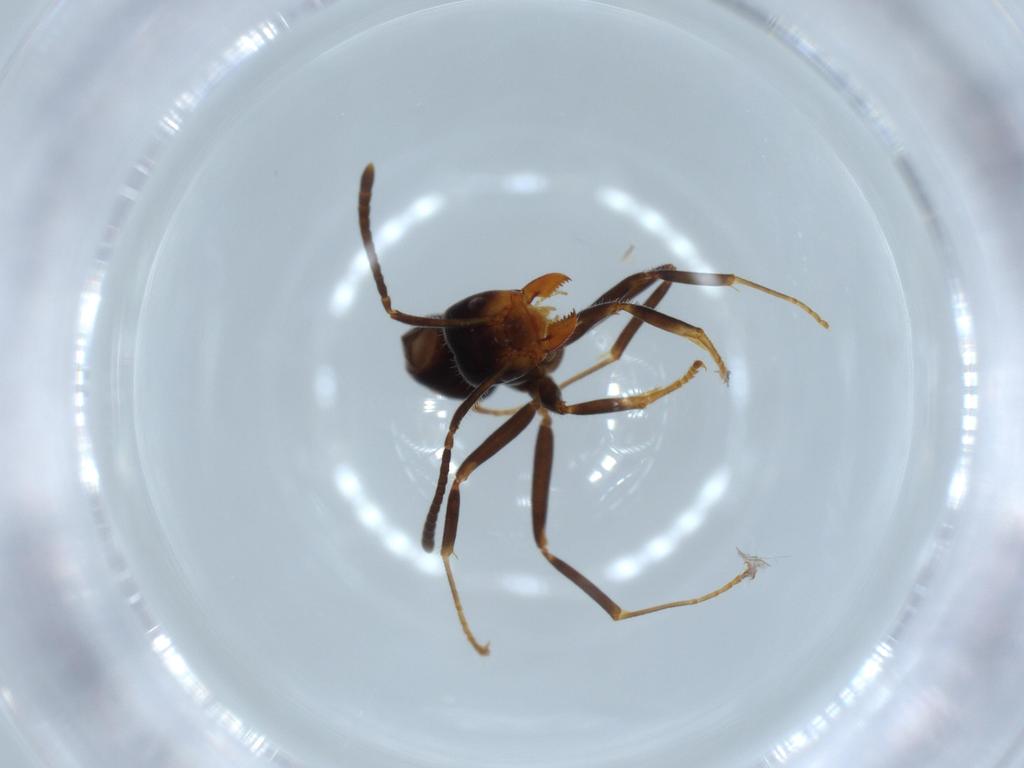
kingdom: Animalia
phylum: Arthropoda
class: Insecta
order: Hymenoptera
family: Formicidae
